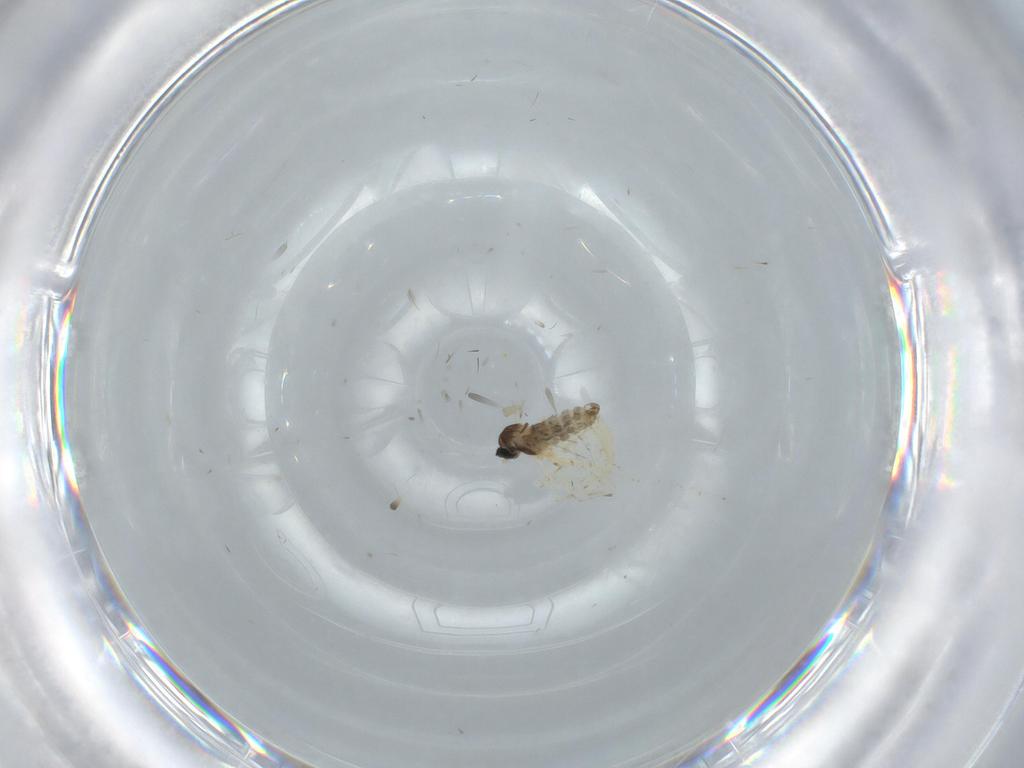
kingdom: Animalia
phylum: Arthropoda
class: Insecta
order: Diptera
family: Cecidomyiidae
